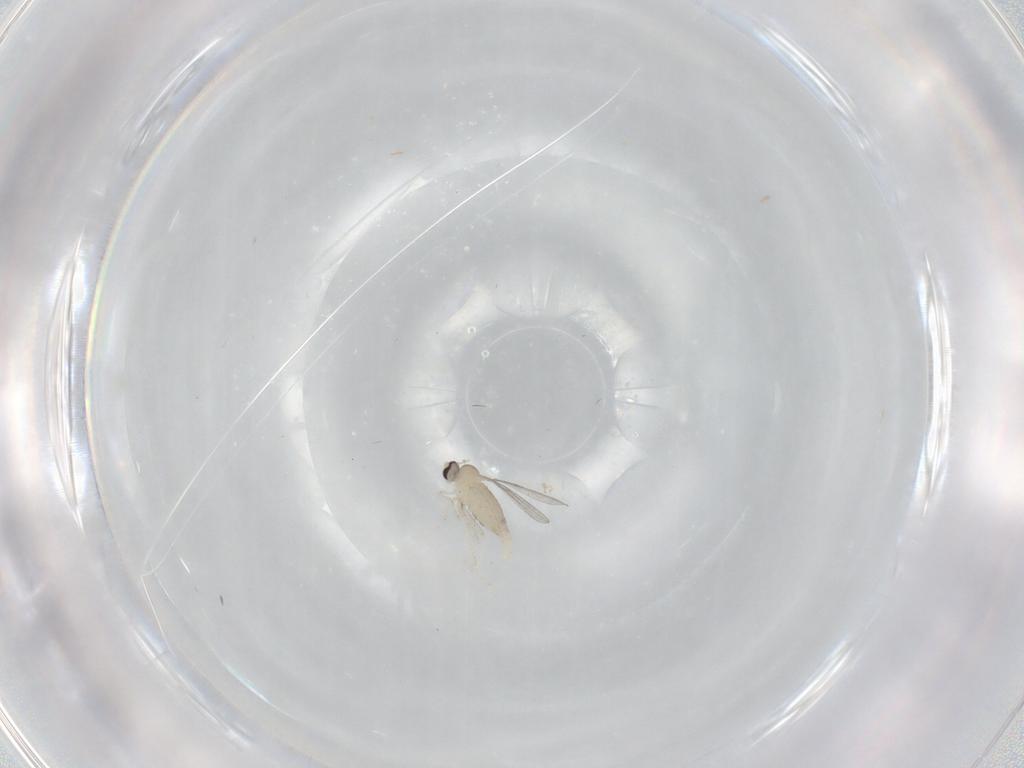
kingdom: Animalia
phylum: Arthropoda
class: Insecta
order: Diptera
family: Cecidomyiidae
